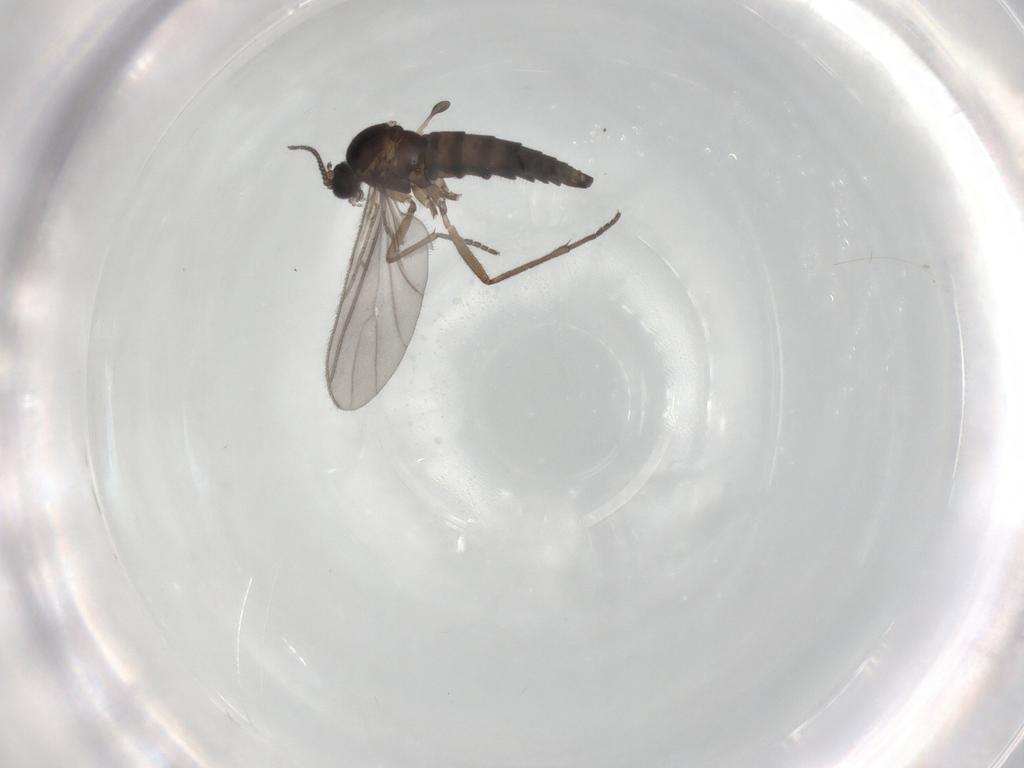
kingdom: Animalia
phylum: Arthropoda
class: Insecta
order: Diptera
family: Sciaridae
